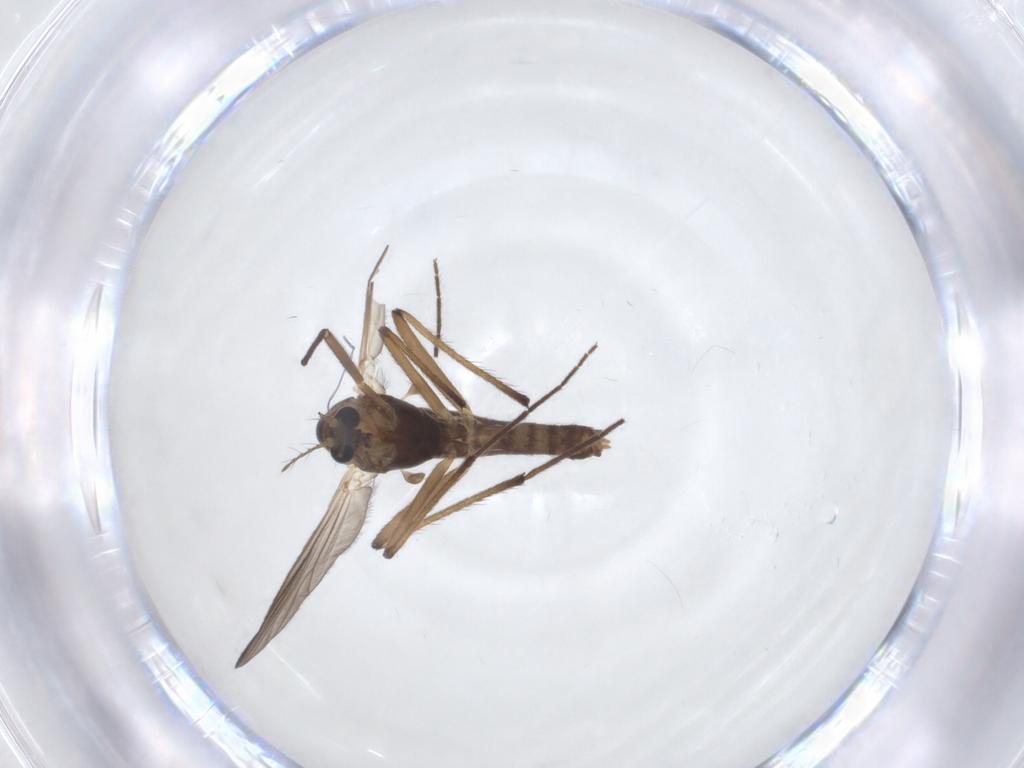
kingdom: Animalia
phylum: Arthropoda
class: Insecta
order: Diptera
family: Chironomidae
